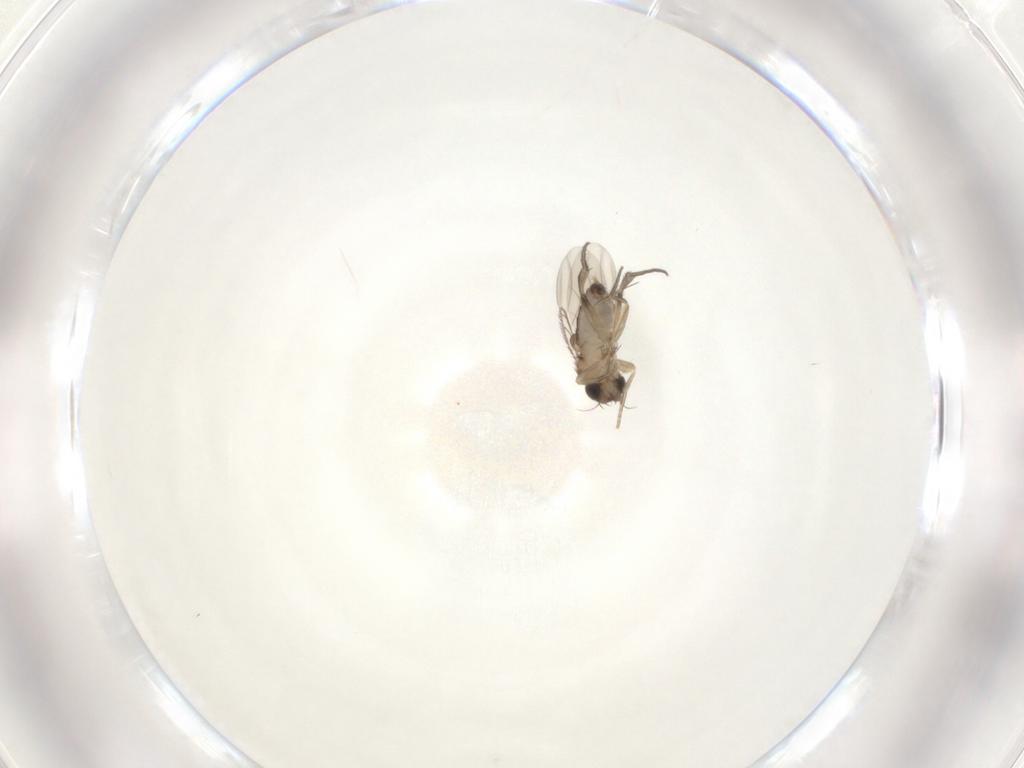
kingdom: Animalia
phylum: Arthropoda
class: Insecta
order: Diptera
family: Phoridae
